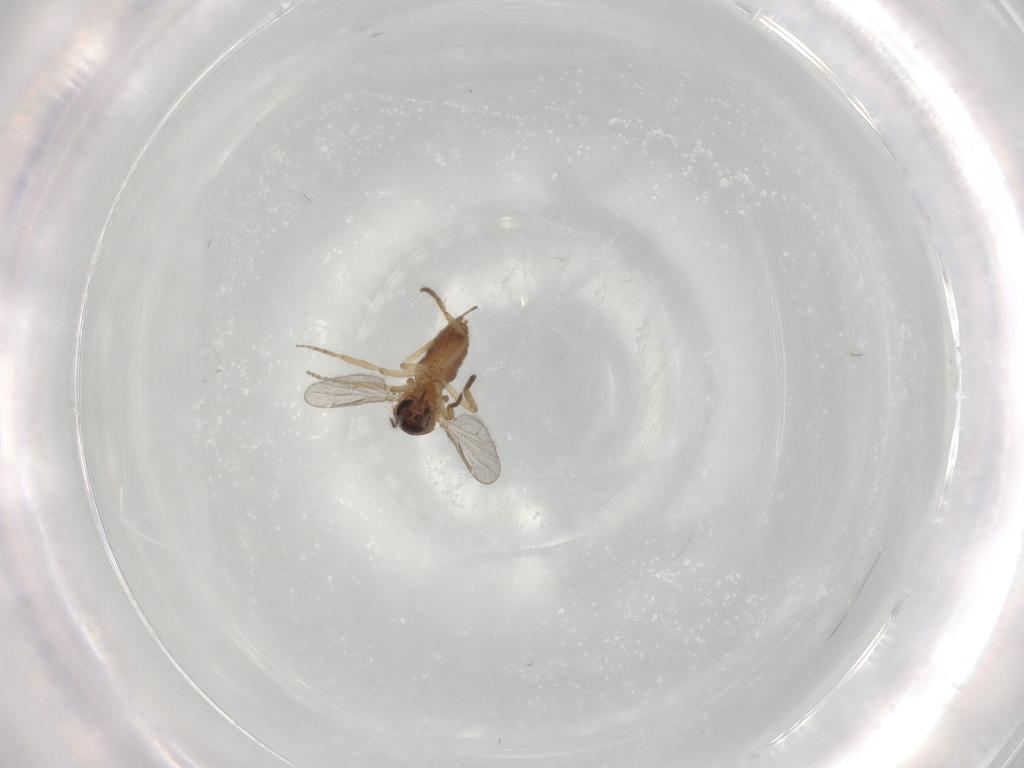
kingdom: Animalia
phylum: Arthropoda
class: Insecta
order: Diptera
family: Ceratopogonidae
